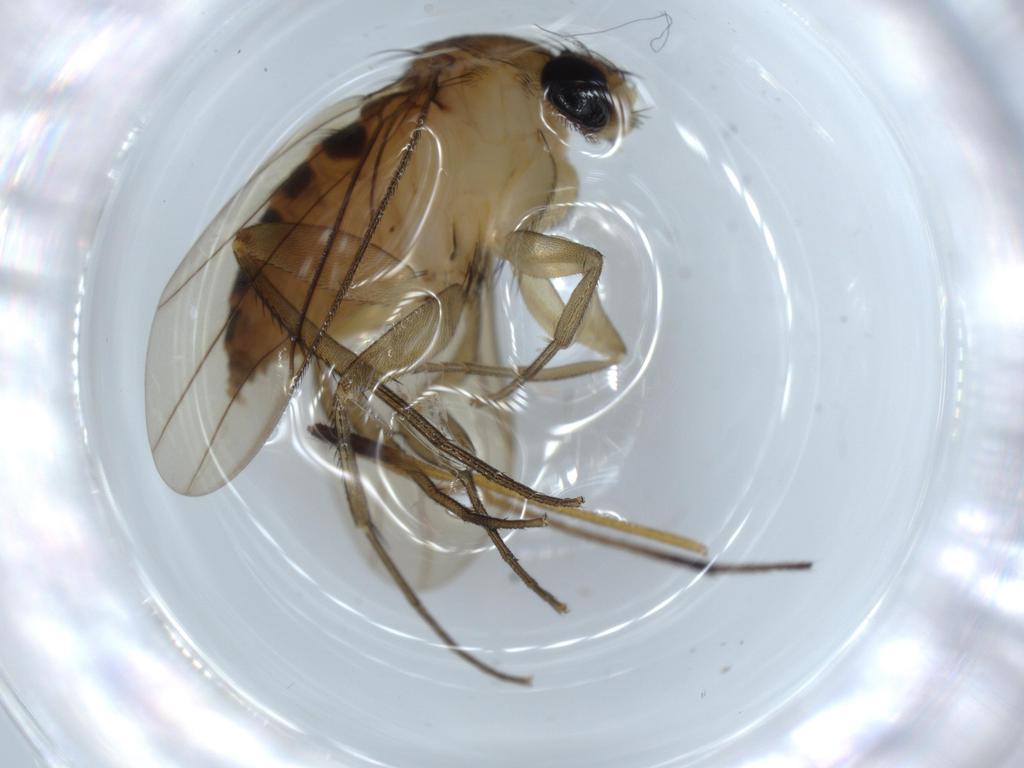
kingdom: Animalia
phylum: Arthropoda
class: Insecta
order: Diptera
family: Limoniidae
